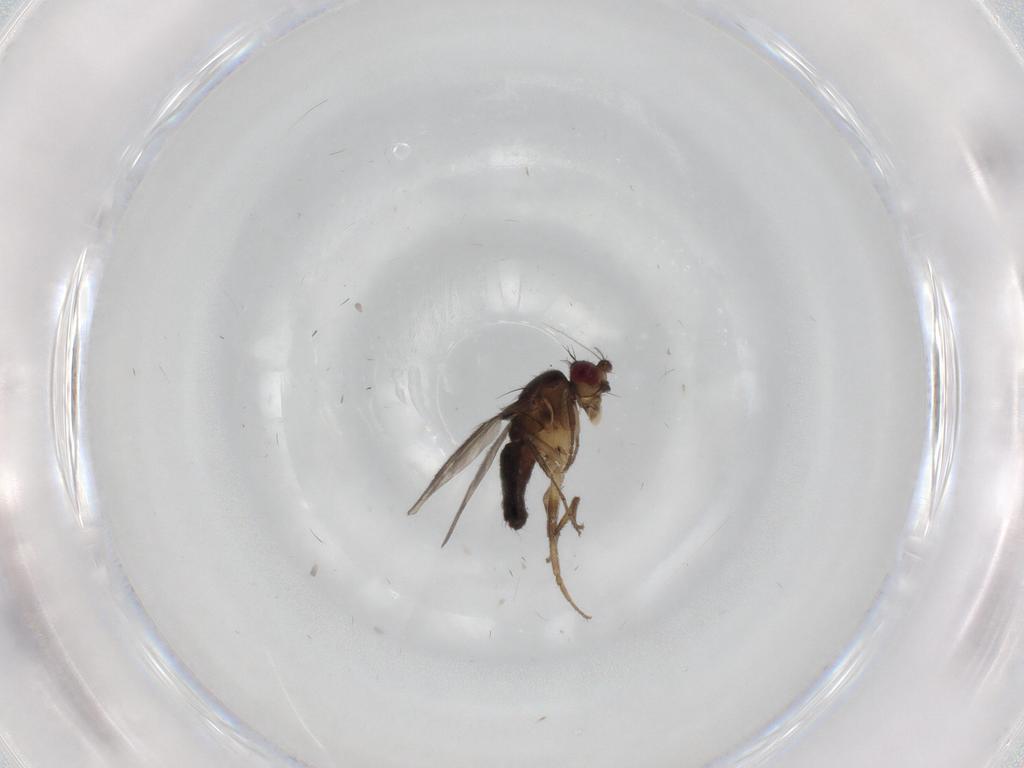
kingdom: Animalia
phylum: Arthropoda
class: Insecta
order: Diptera
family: Sphaeroceridae
